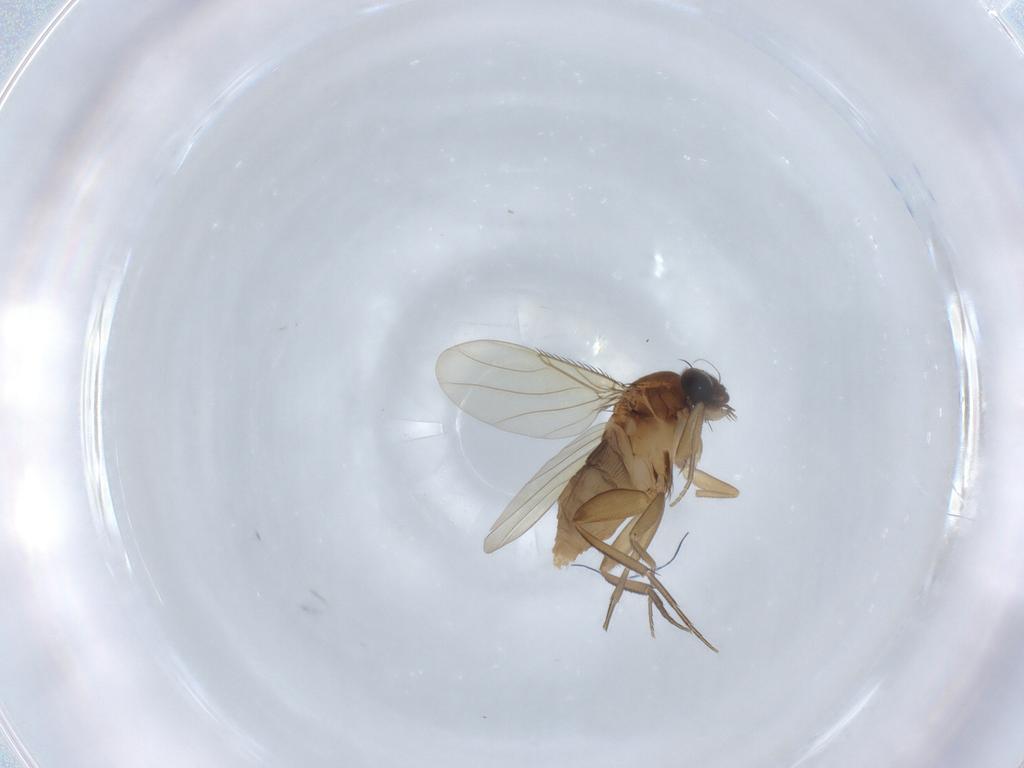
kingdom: Animalia
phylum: Arthropoda
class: Insecta
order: Diptera
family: Phoridae
